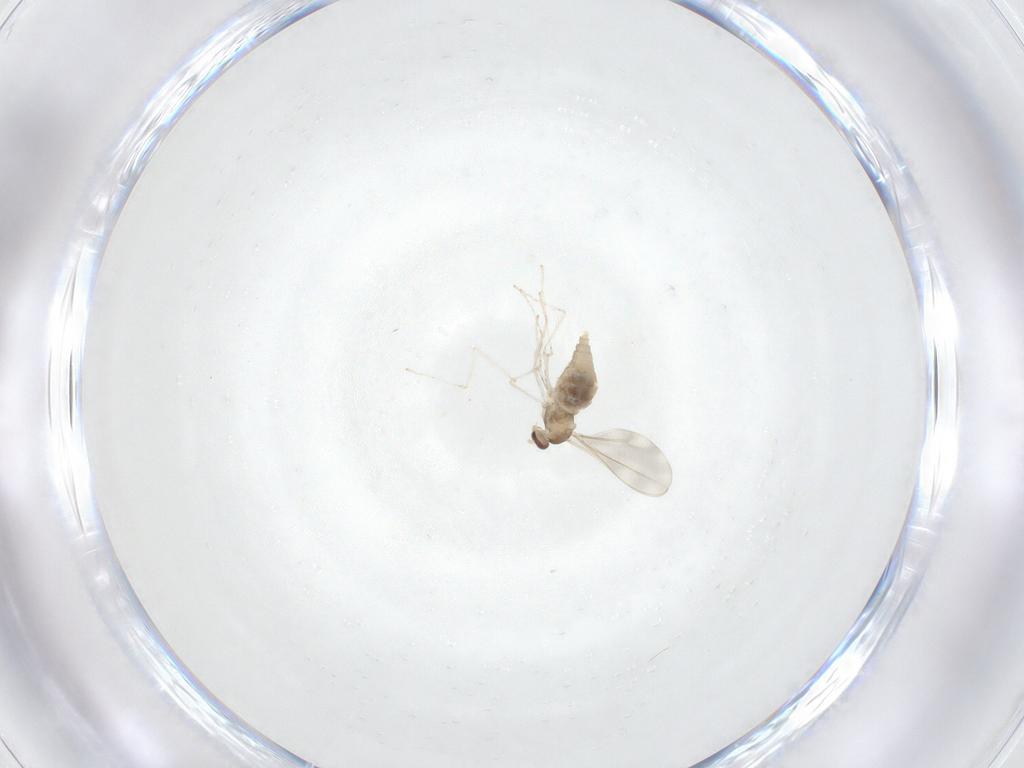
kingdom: Animalia
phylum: Arthropoda
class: Insecta
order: Diptera
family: Cecidomyiidae
